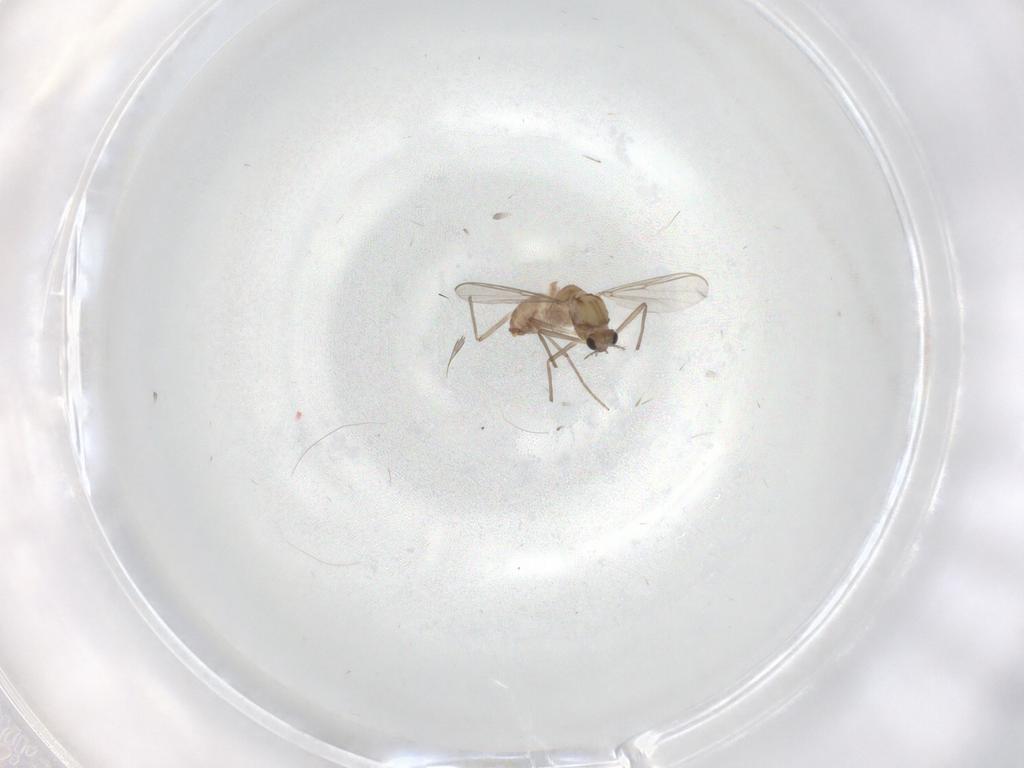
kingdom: Animalia
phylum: Arthropoda
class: Insecta
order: Diptera
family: Chironomidae
